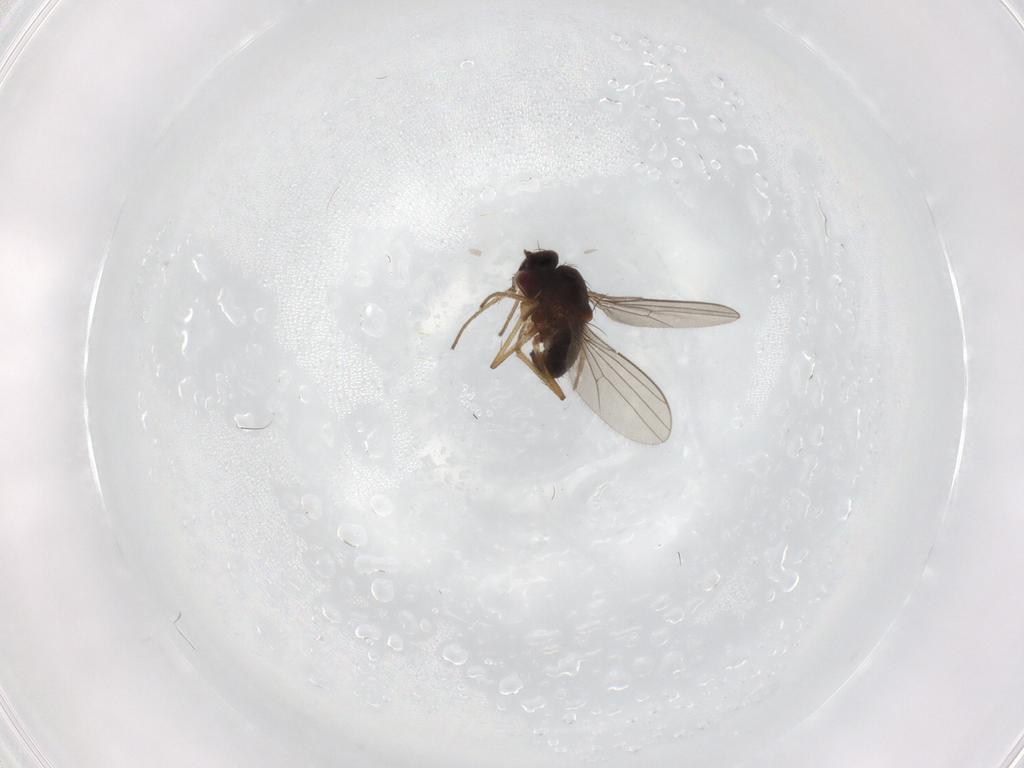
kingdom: Animalia
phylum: Arthropoda
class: Insecta
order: Diptera
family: Dolichopodidae
